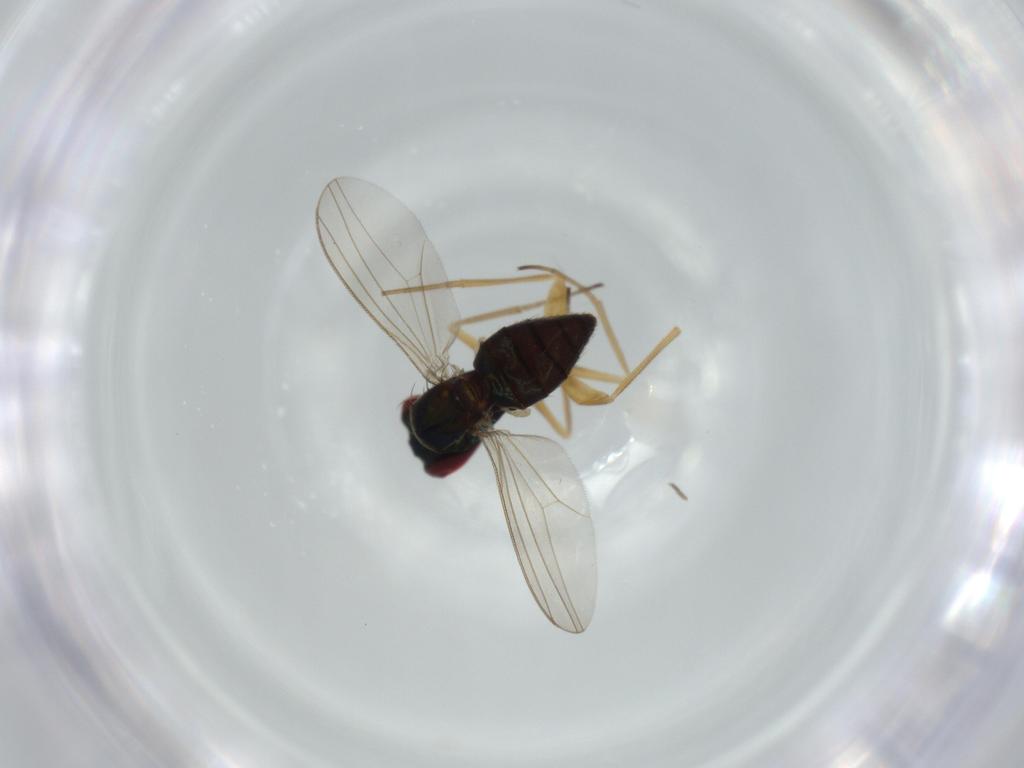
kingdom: Animalia
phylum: Arthropoda
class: Insecta
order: Diptera
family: Dolichopodidae
